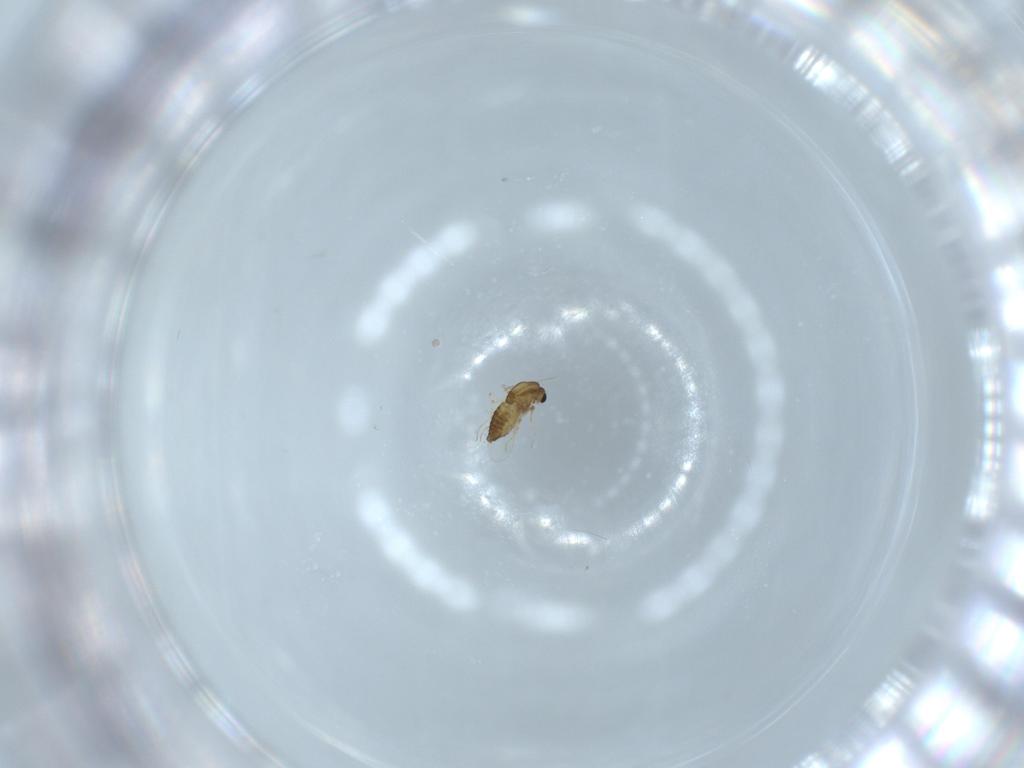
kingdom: Animalia
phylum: Arthropoda
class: Insecta
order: Diptera
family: Chironomidae
